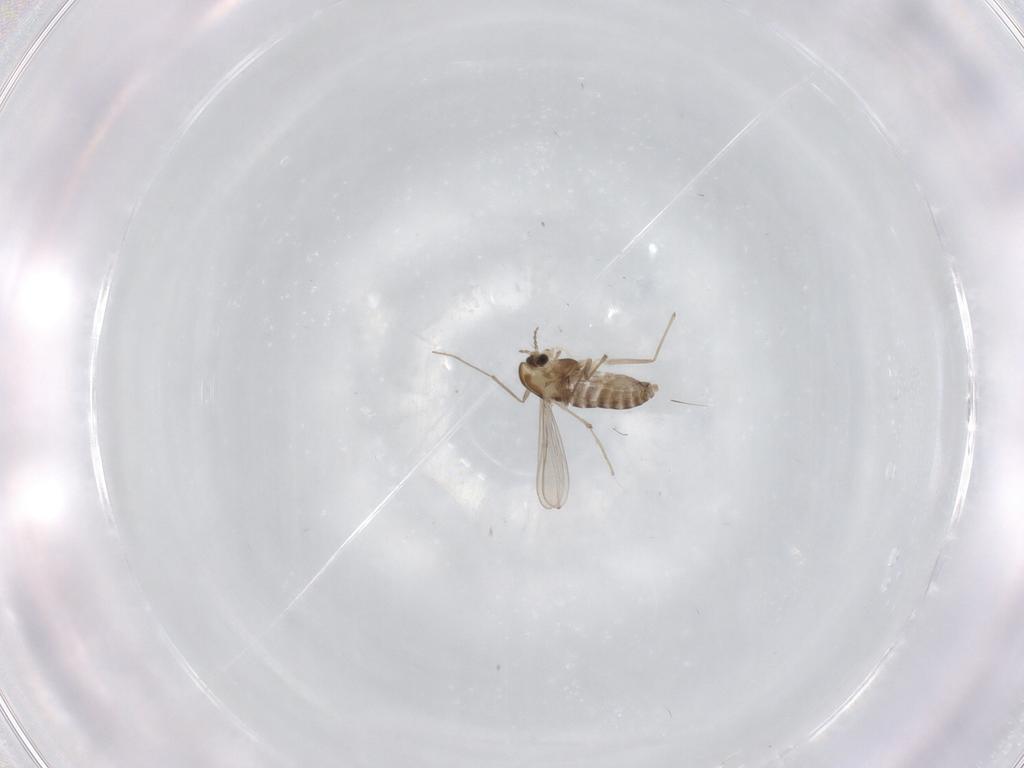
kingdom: Animalia
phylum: Arthropoda
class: Insecta
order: Diptera
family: Chironomidae
